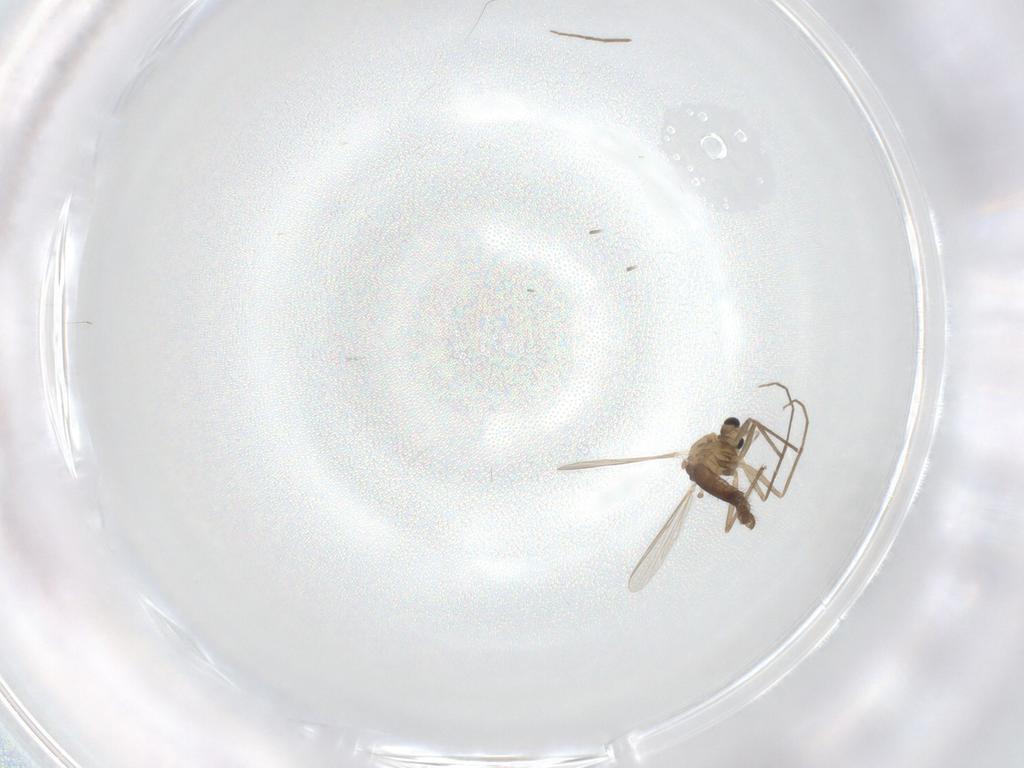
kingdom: Animalia
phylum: Arthropoda
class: Insecta
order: Diptera
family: Chironomidae
